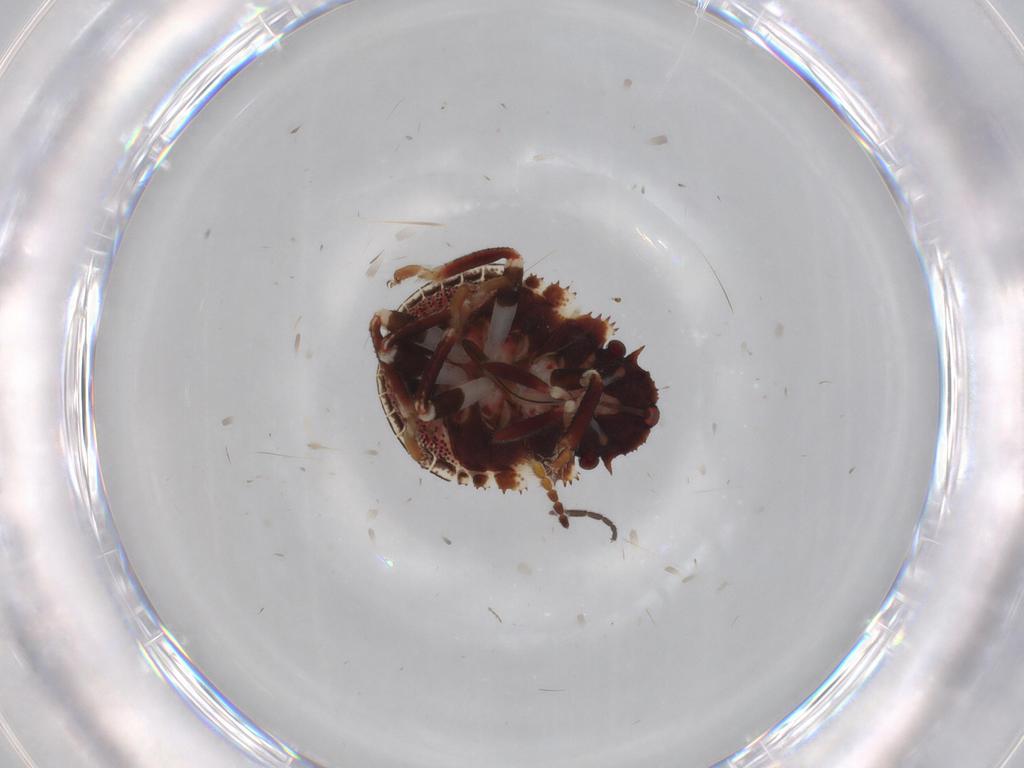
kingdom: Animalia
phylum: Arthropoda
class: Insecta
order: Hemiptera
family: Scutelleridae
